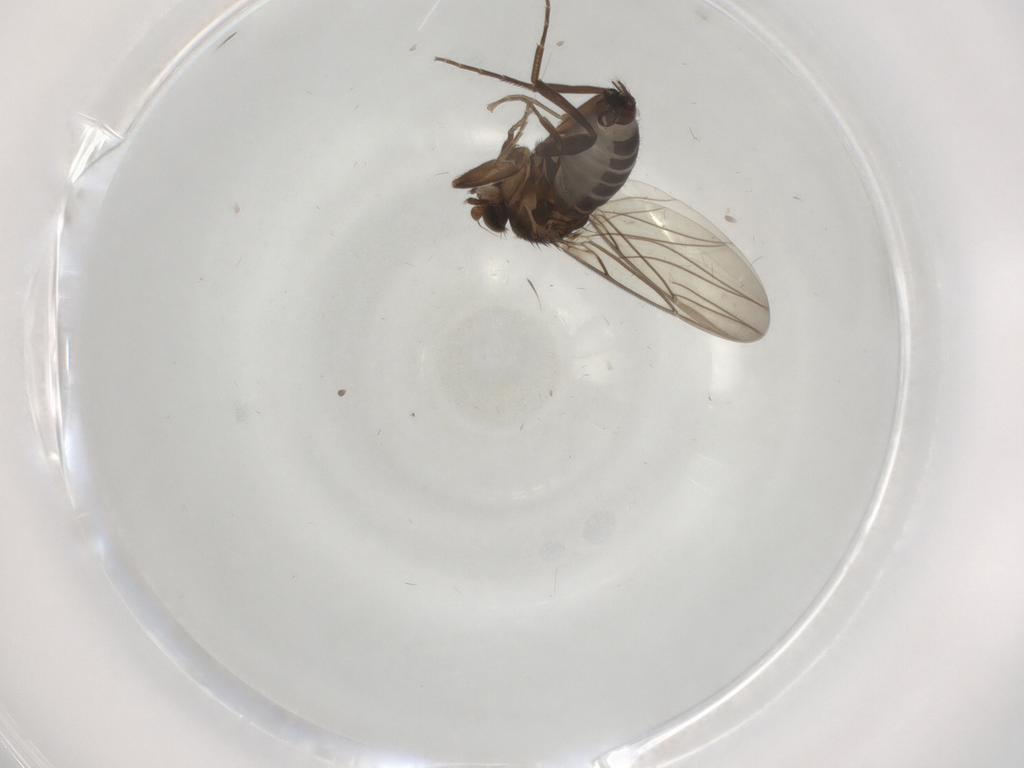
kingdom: Animalia
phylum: Arthropoda
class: Insecta
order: Diptera
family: Phoridae
